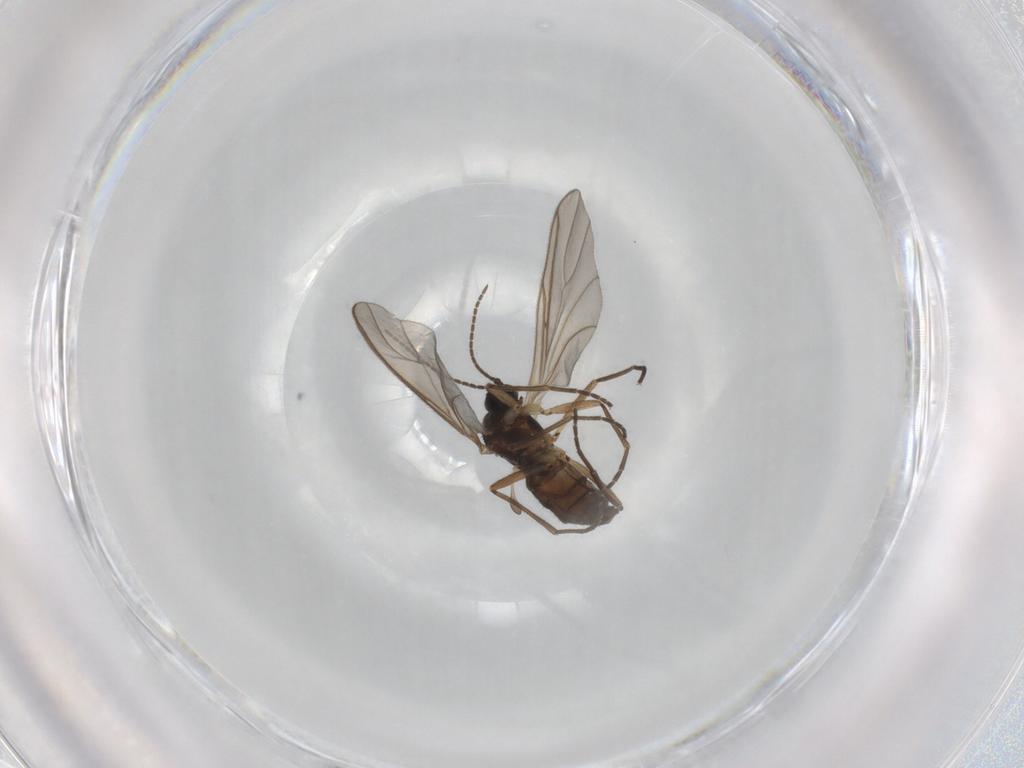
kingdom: Animalia
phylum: Arthropoda
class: Insecta
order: Diptera
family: Sciaridae
